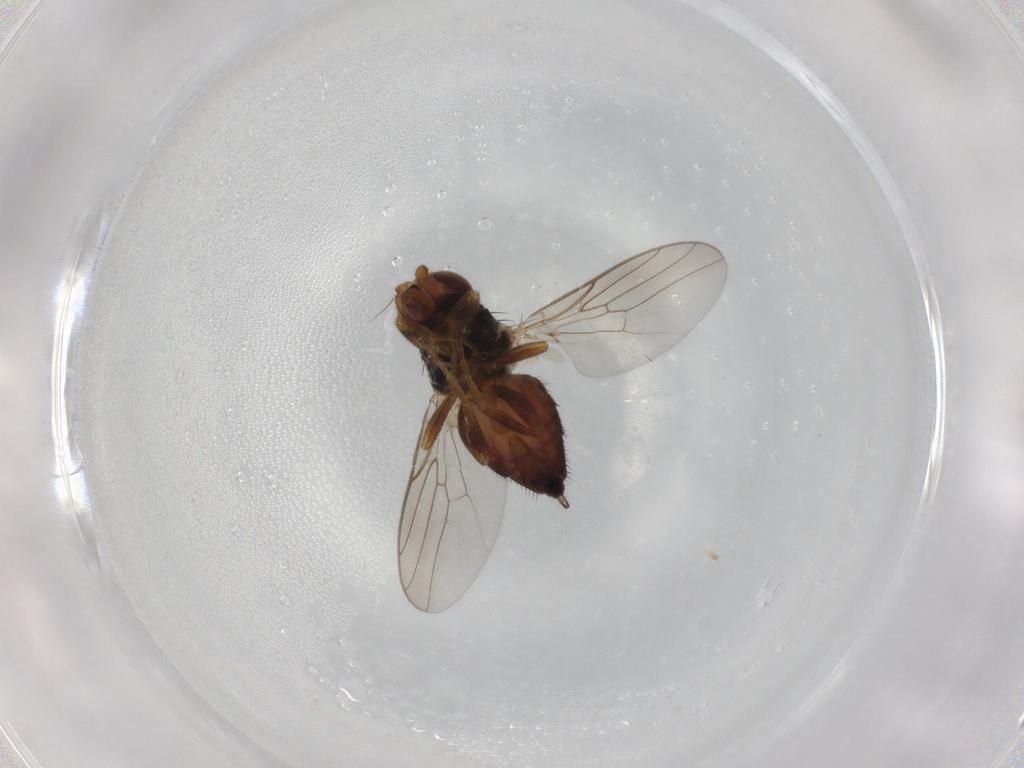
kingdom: Animalia
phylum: Arthropoda
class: Insecta
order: Diptera
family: Chloropidae
